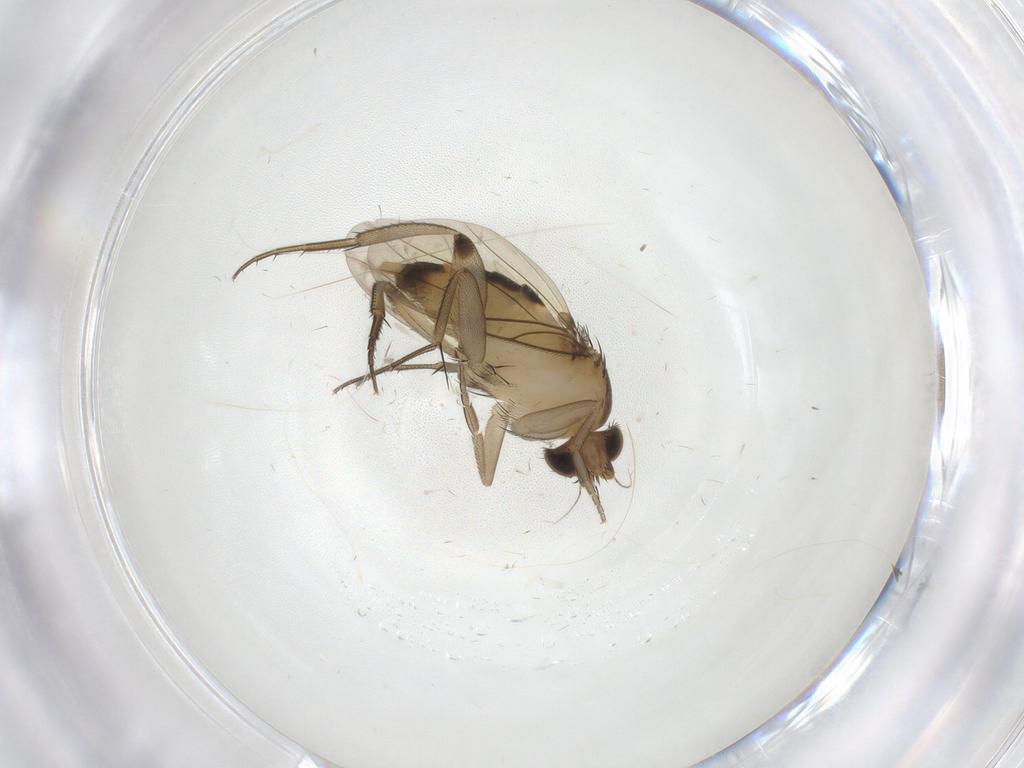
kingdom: Animalia
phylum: Arthropoda
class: Insecta
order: Diptera
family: Phoridae
